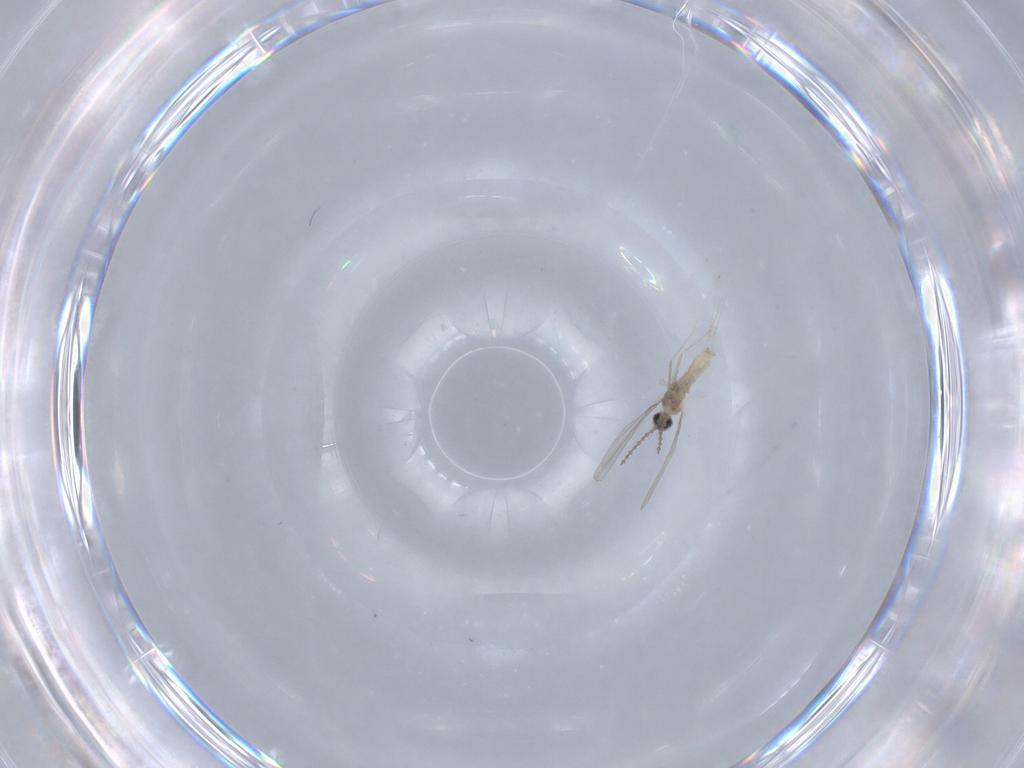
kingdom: Animalia
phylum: Arthropoda
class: Insecta
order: Diptera
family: Cecidomyiidae
